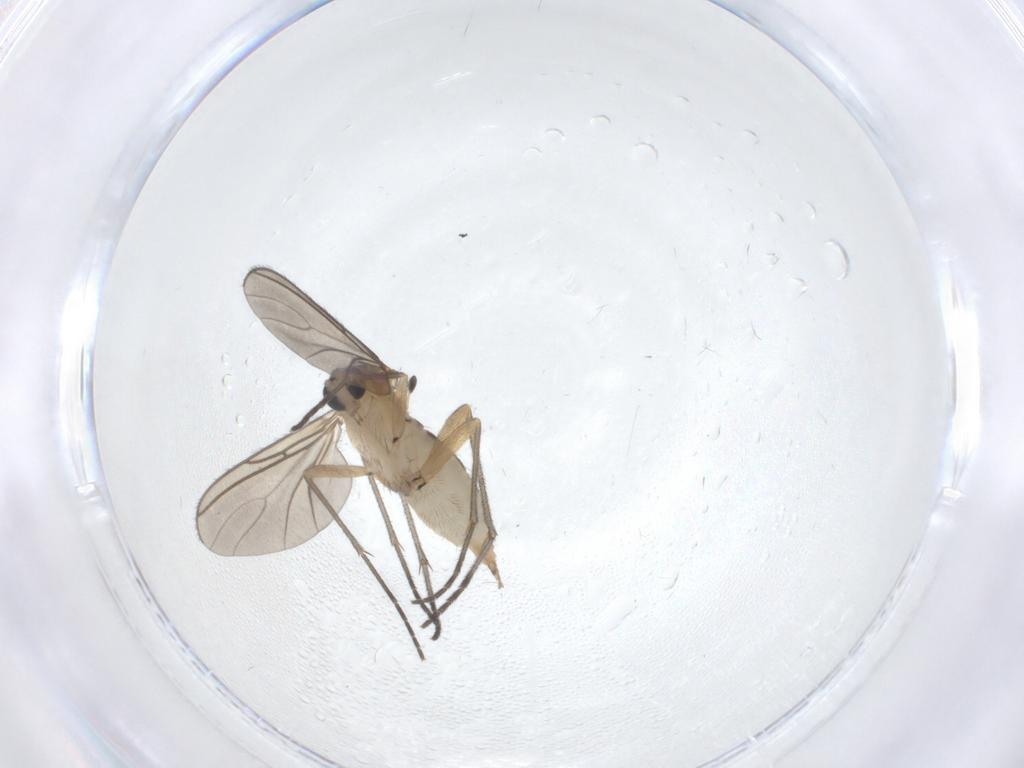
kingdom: Animalia
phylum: Arthropoda
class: Insecta
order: Diptera
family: Sciaridae
